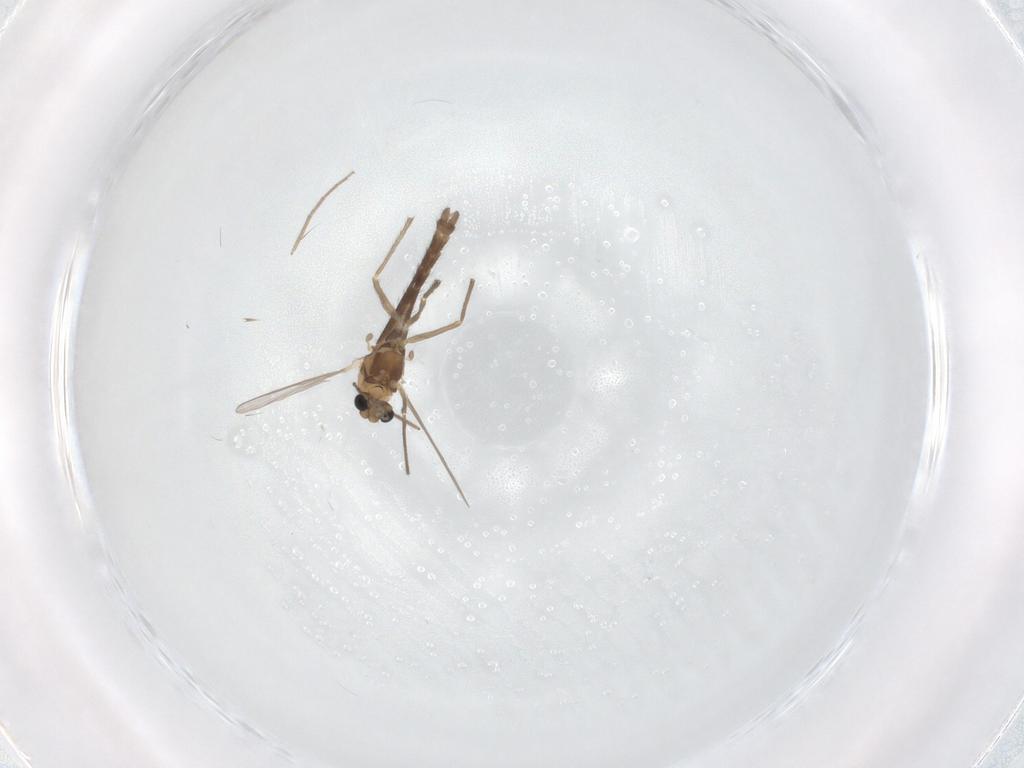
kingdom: Animalia
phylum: Arthropoda
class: Insecta
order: Diptera
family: Chironomidae
